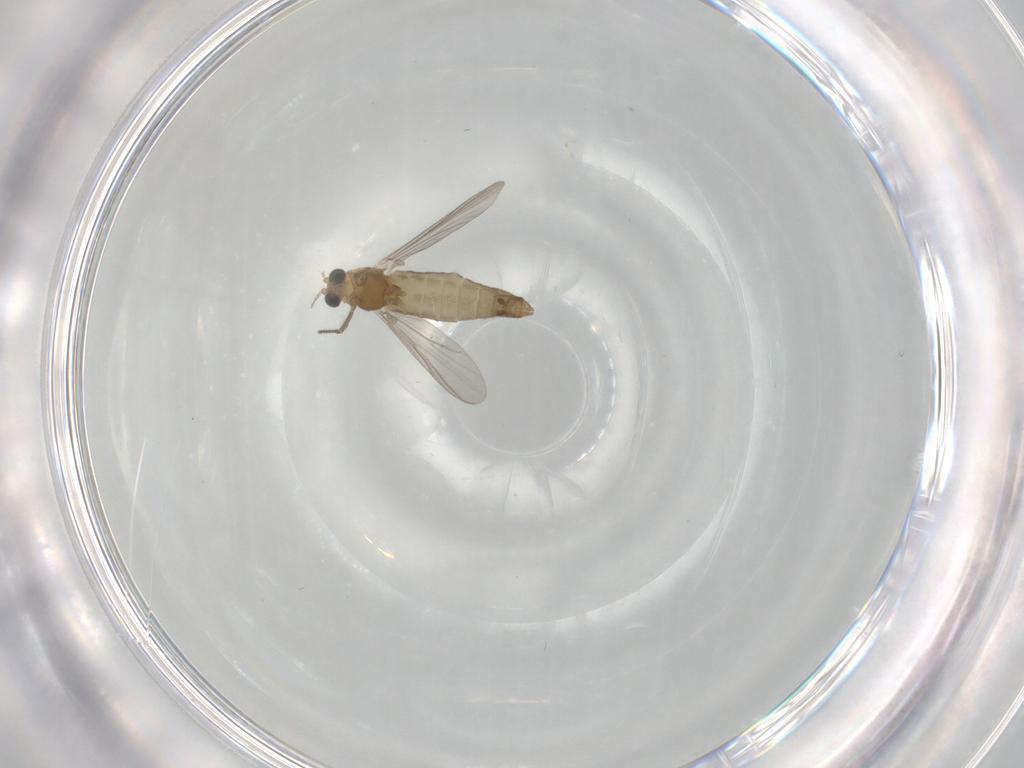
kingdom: Animalia
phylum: Arthropoda
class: Insecta
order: Diptera
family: Chironomidae
